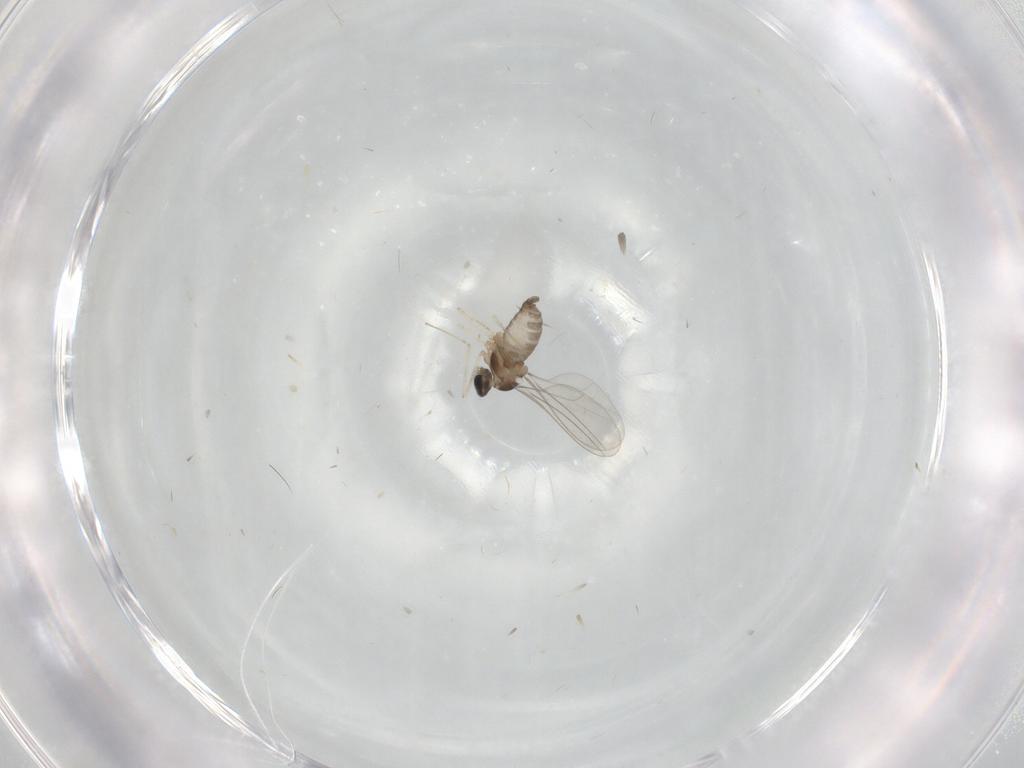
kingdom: Animalia
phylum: Arthropoda
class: Insecta
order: Diptera
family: Cecidomyiidae
